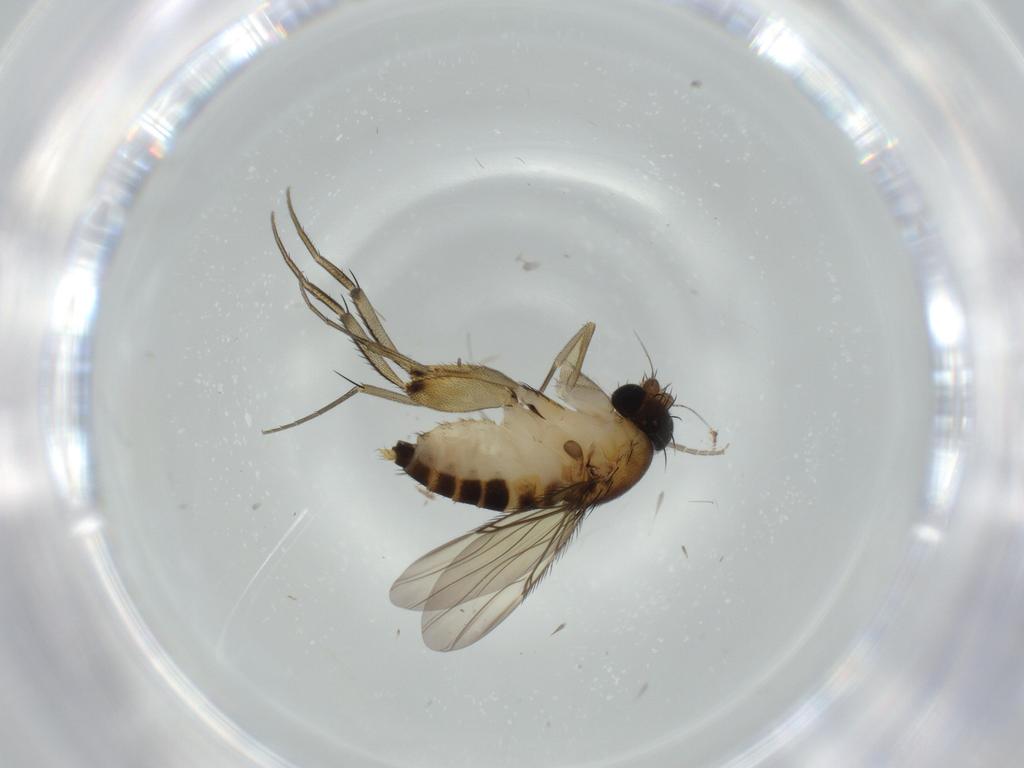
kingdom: Animalia
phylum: Arthropoda
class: Insecta
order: Diptera
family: Phoridae
